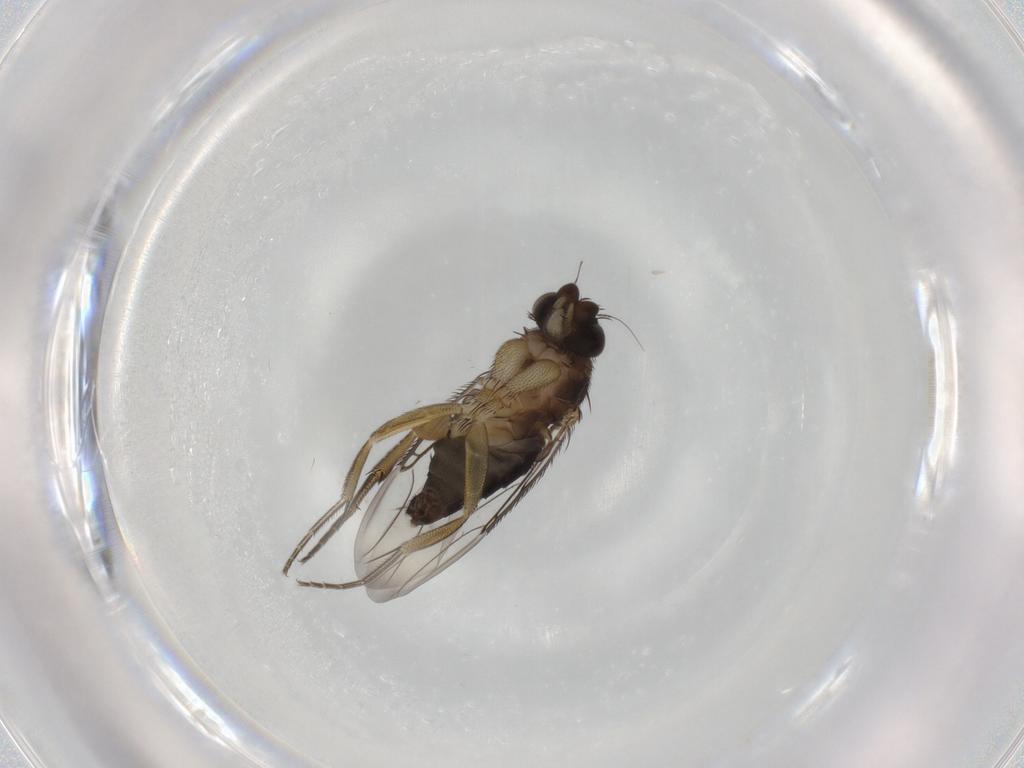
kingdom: Animalia
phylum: Arthropoda
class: Insecta
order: Diptera
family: Phoridae
